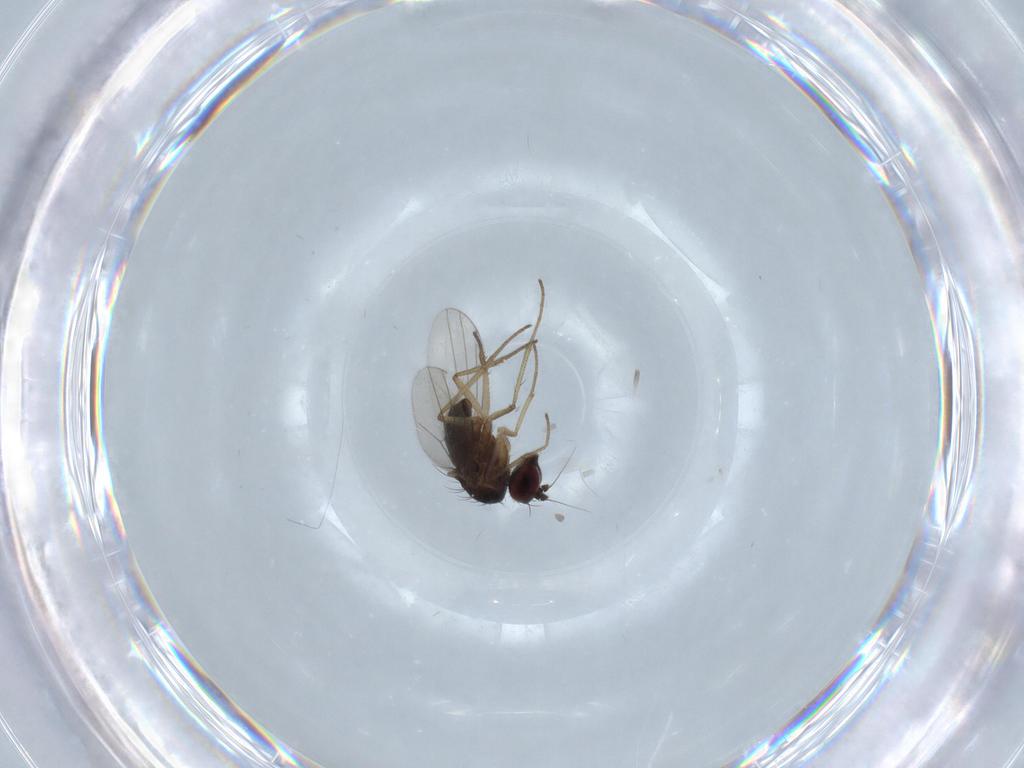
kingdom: Animalia
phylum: Arthropoda
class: Insecta
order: Diptera
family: Dolichopodidae
